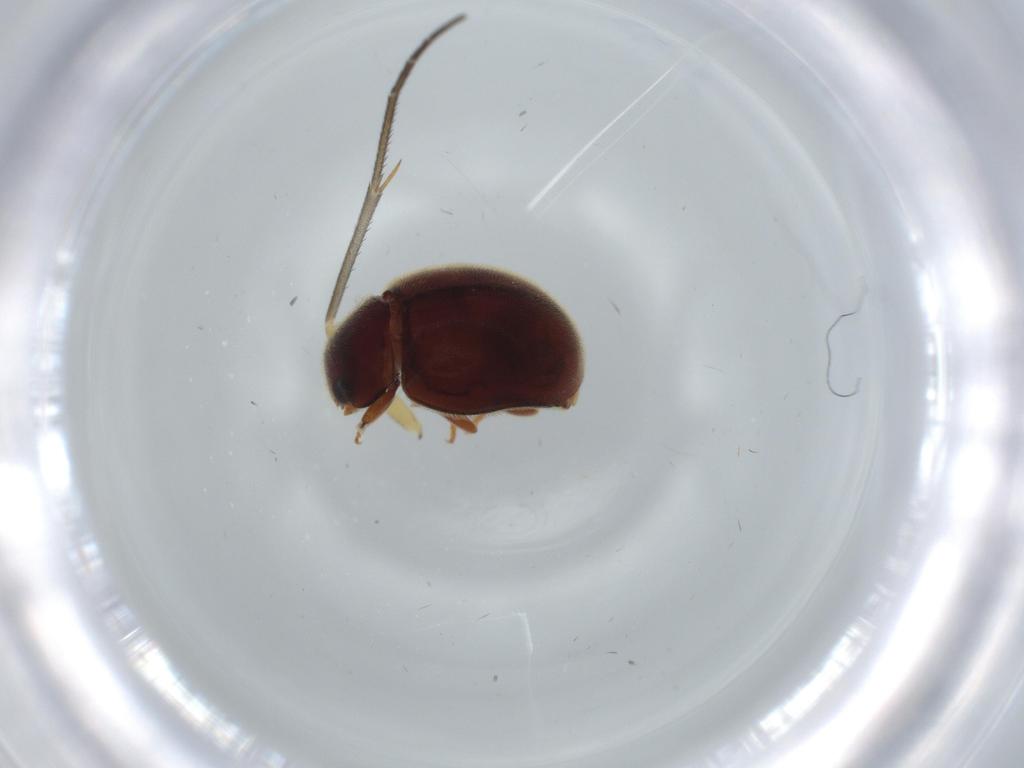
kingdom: Animalia
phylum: Arthropoda
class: Insecta
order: Coleoptera
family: Coccinellidae
